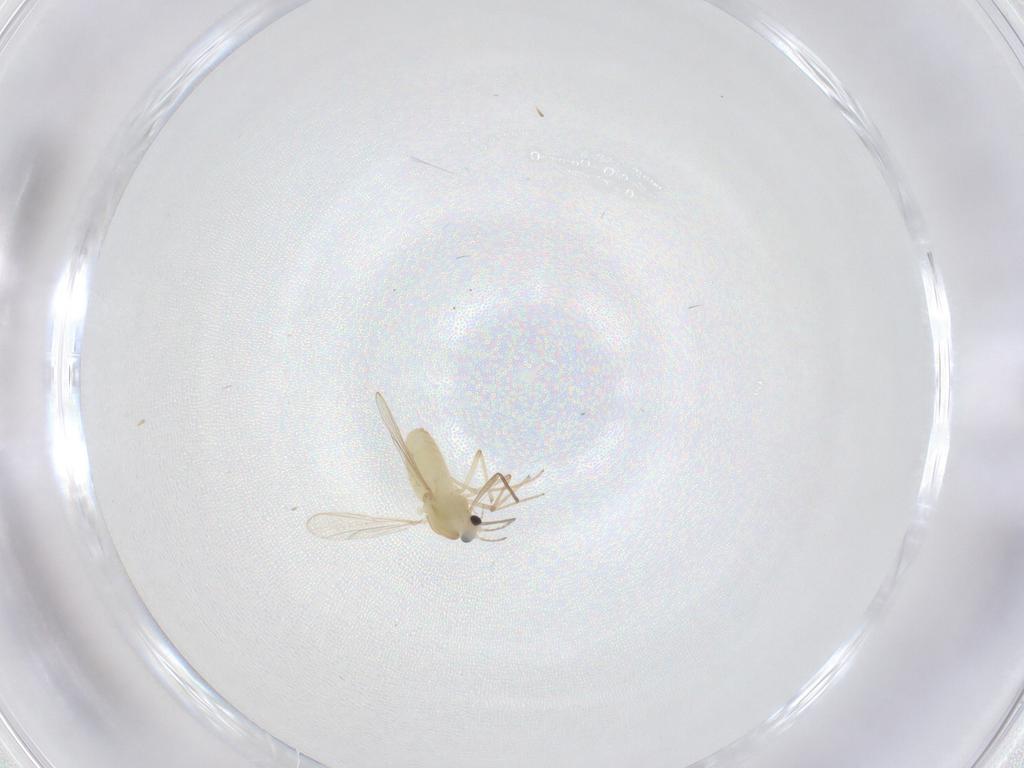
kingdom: Animalia
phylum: Arthropoda
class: Insecta
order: Diptera
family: Chironomidae
